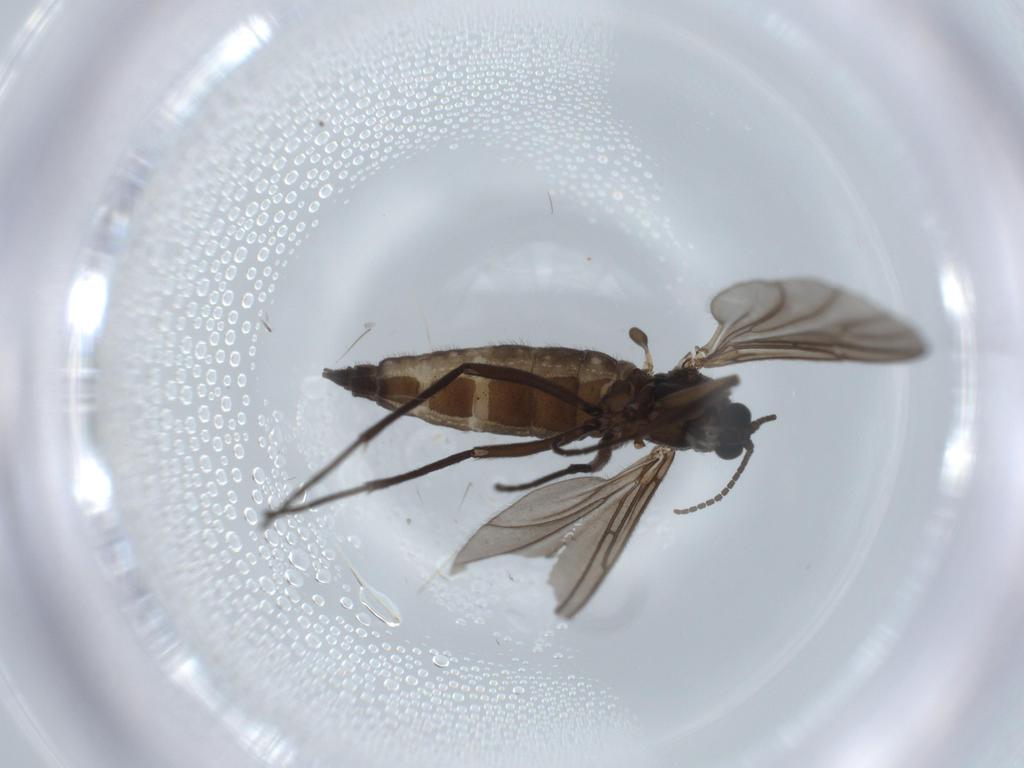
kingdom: Animalia
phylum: Arthropoda
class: Insecta
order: Diptera
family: Sciaridae
